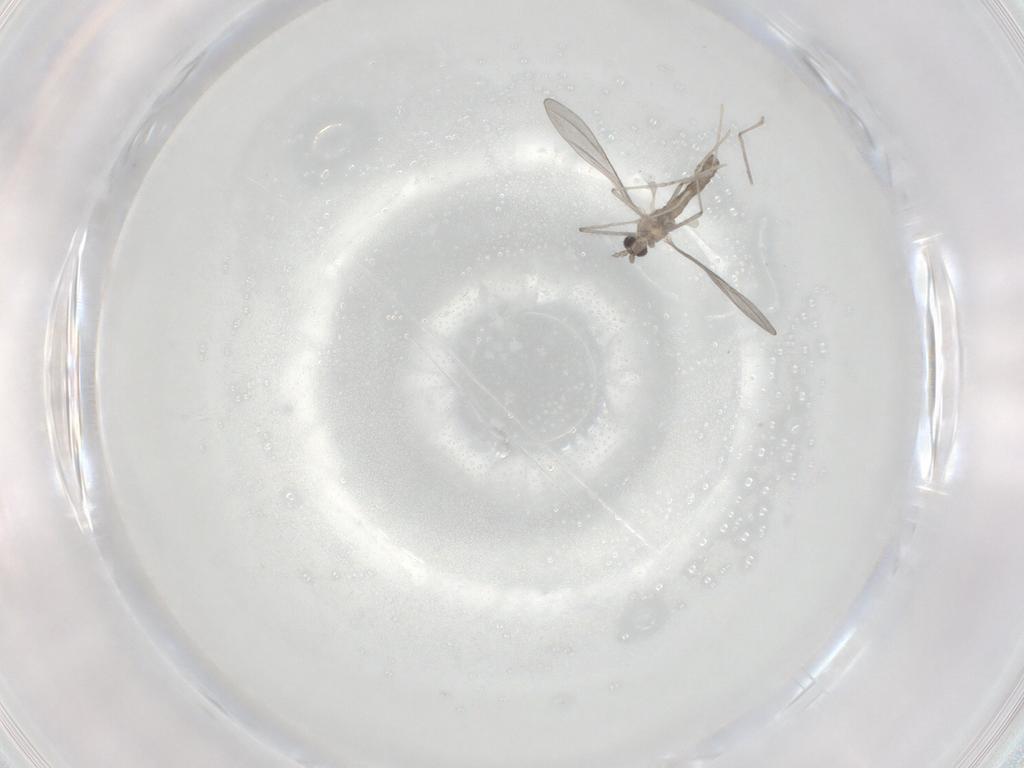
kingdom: Animalia
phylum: Arthropoda
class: Insecta
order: Diptera
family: Cecidomyiidae
